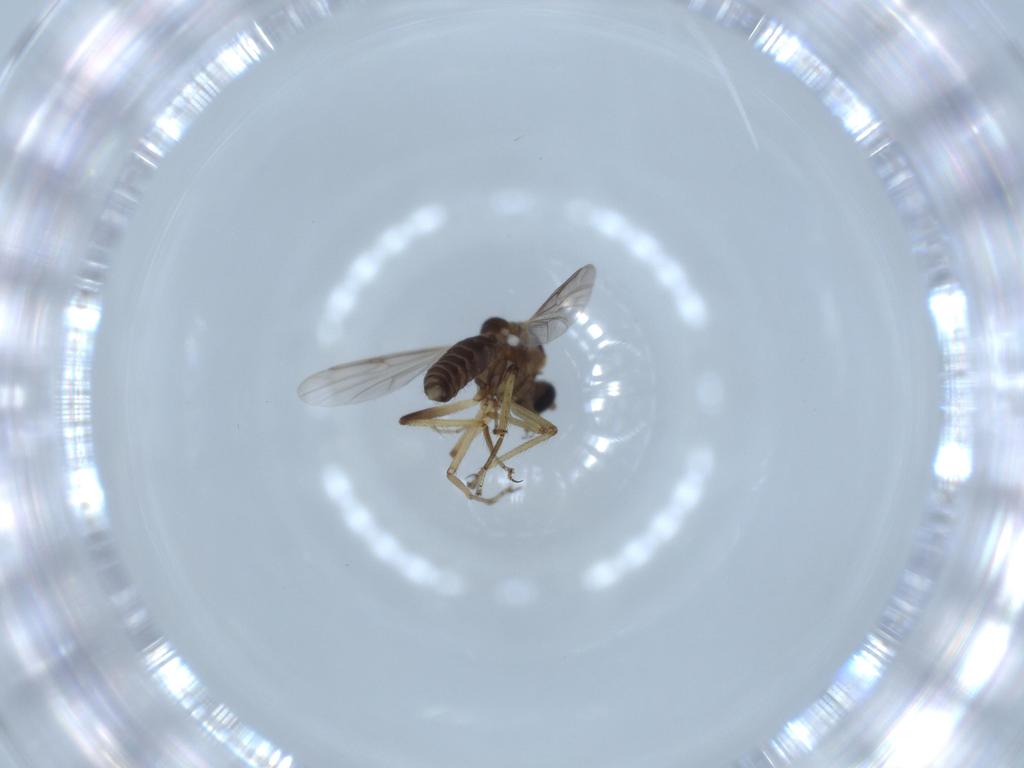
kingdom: Animalia
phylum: Arthropoda
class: Insecta
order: Diptera
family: Ceratopogonidae
